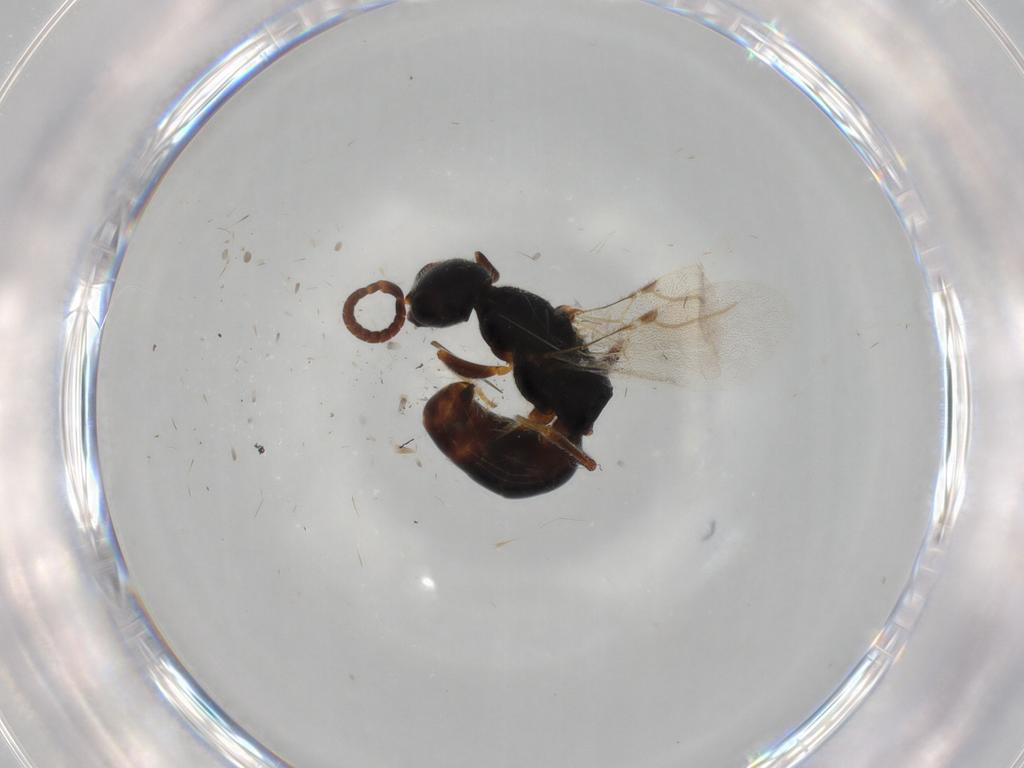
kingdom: Animalia
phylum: Arthropoda
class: Insecta
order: Hymenoptera
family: Bethylidae
